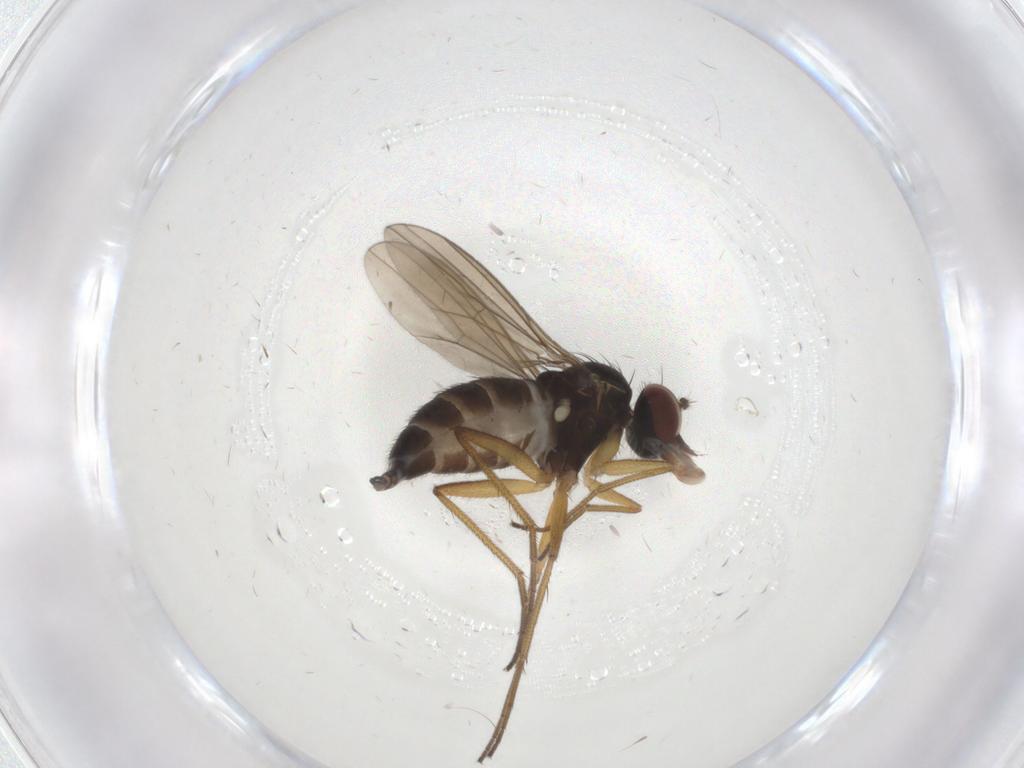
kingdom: Animalia
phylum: Arthropoda
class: Insecta
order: Diptera
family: Dolichopodidae
